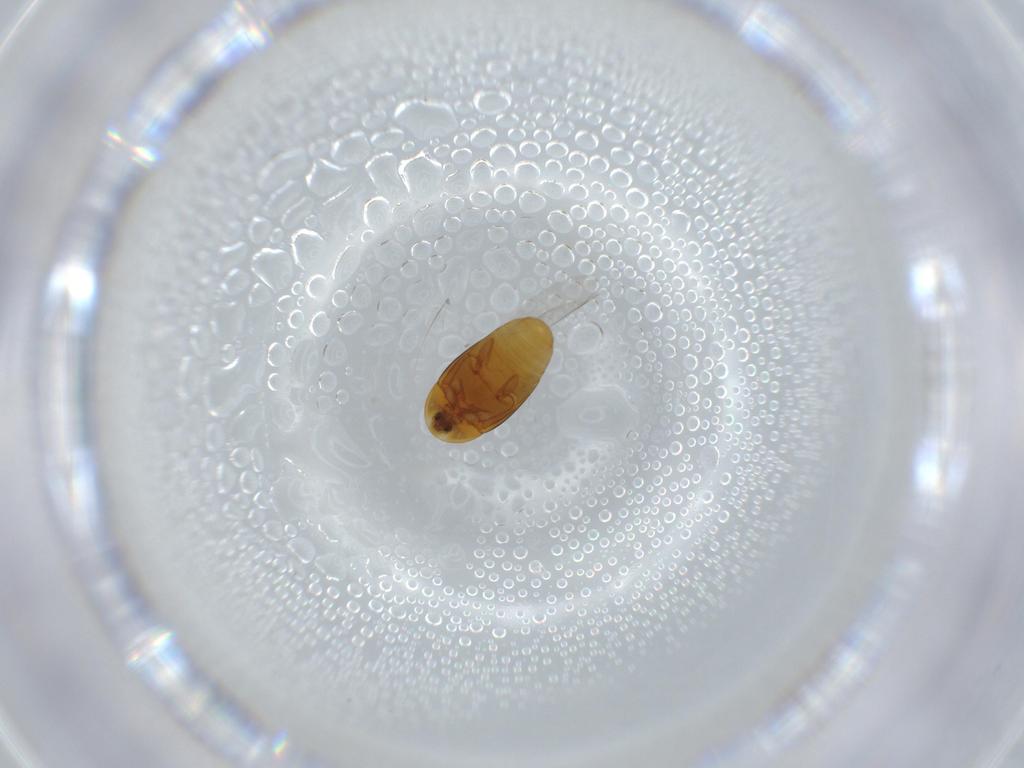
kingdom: Animalia
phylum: Arthropoda
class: Insecta
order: Coleoptera
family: Corylophidae
